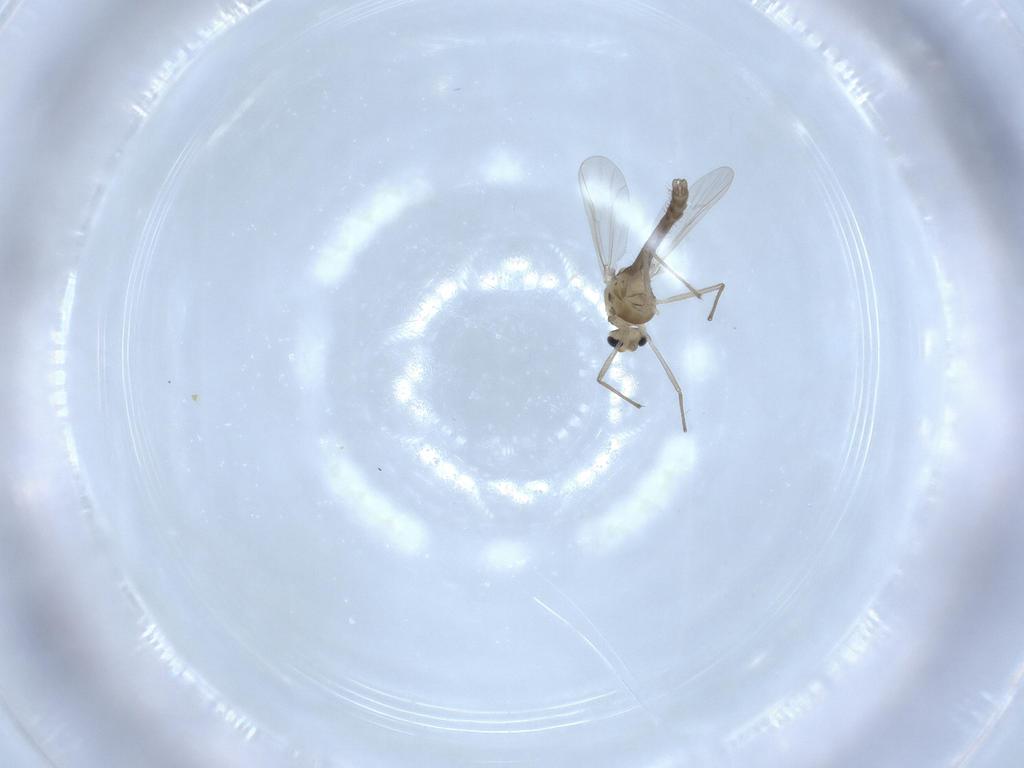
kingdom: Animalia
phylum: Arthropoda
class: Insecta
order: Diptera
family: Chironomidae
